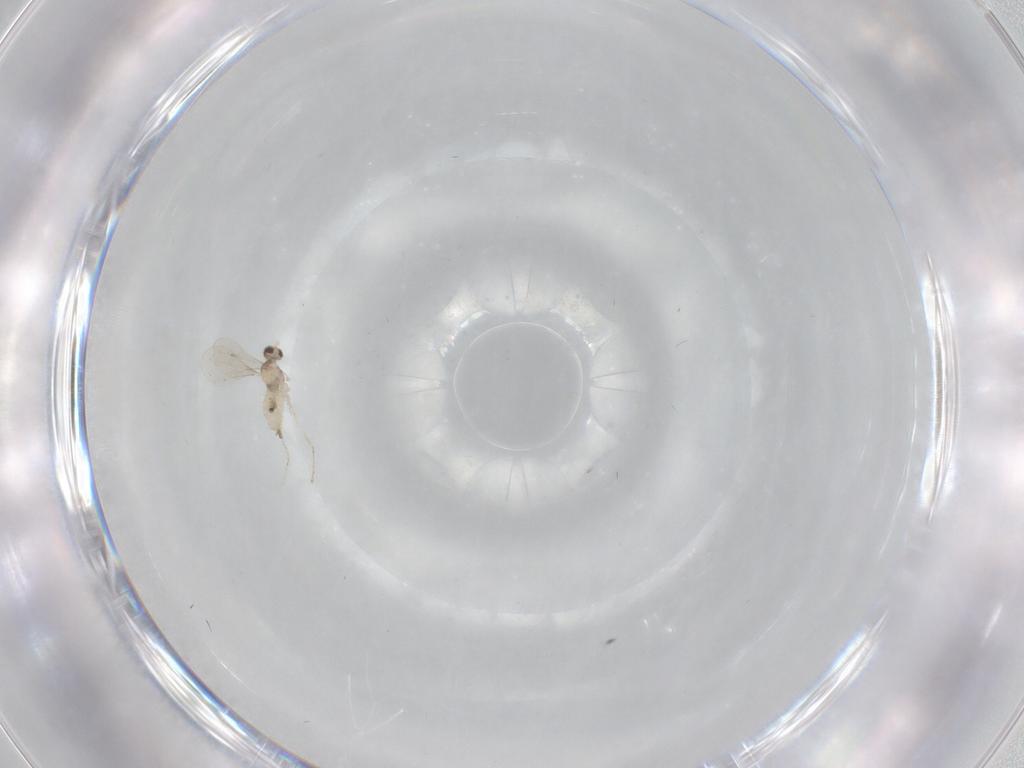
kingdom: Animalia
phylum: Arthropoda
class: Insecta
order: Diptera
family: Cecidomyiidae
